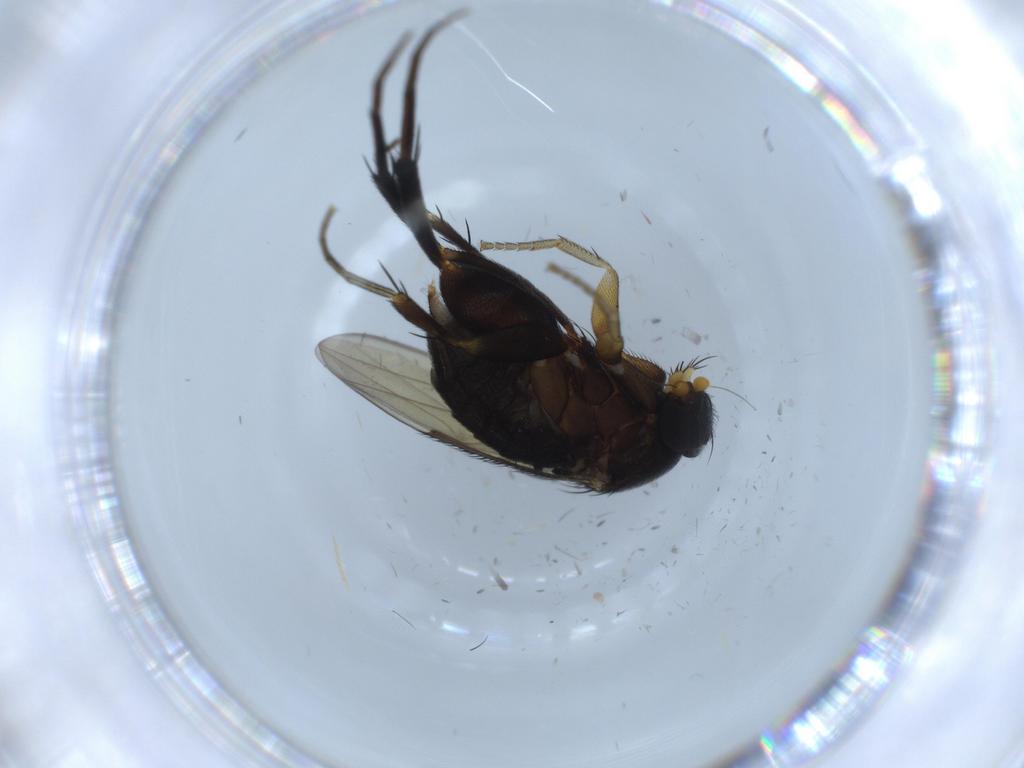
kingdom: Animalia
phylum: Arthropoda
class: Insecta
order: Diptera
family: Phoridae
